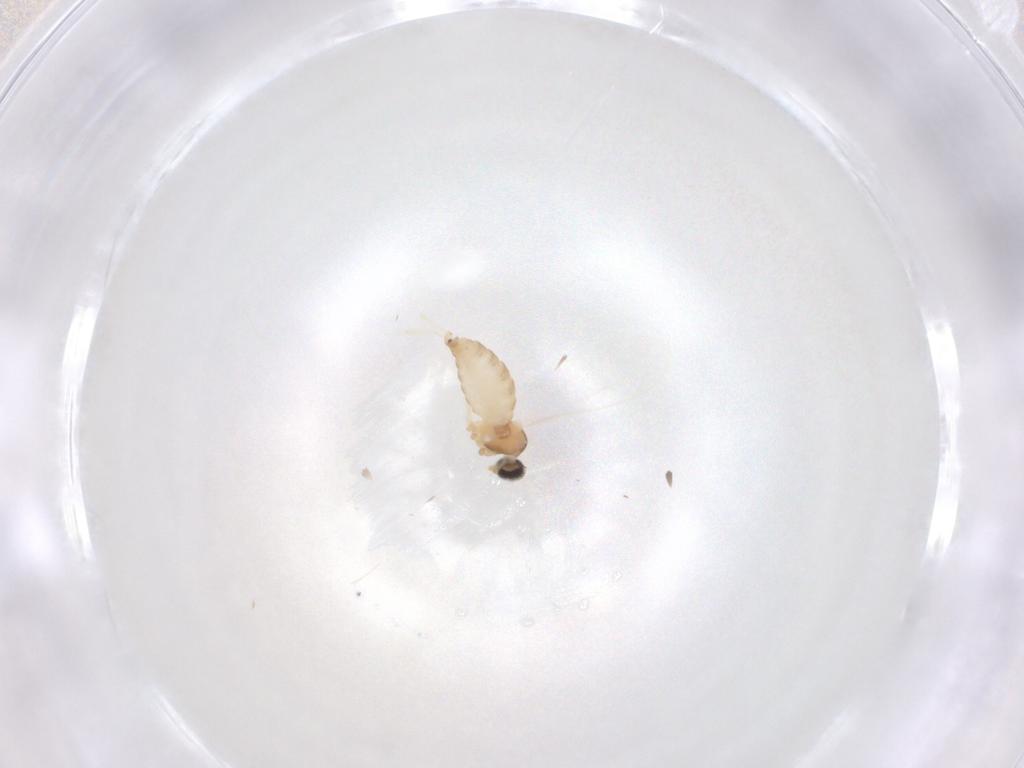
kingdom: Animalia
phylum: Arthropoda
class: Insecta
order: Diptera
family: Cecidomyiidae
